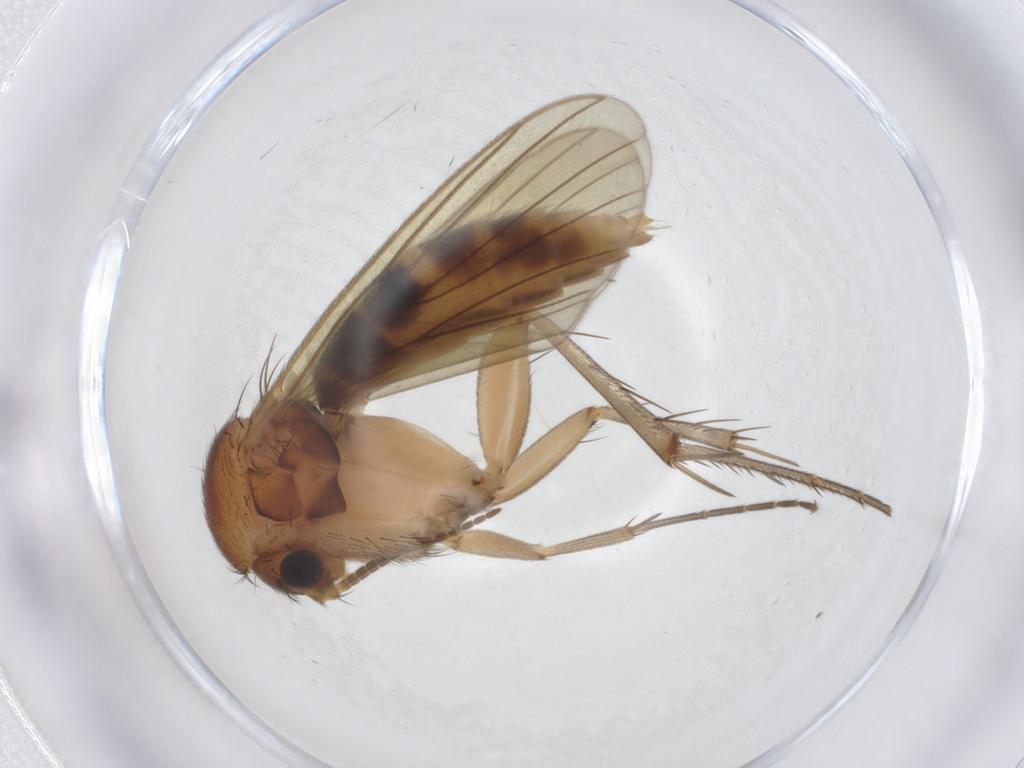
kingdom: Animalia
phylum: Arthropoda
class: Insecta
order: Diptera
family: Mycetophilidae
